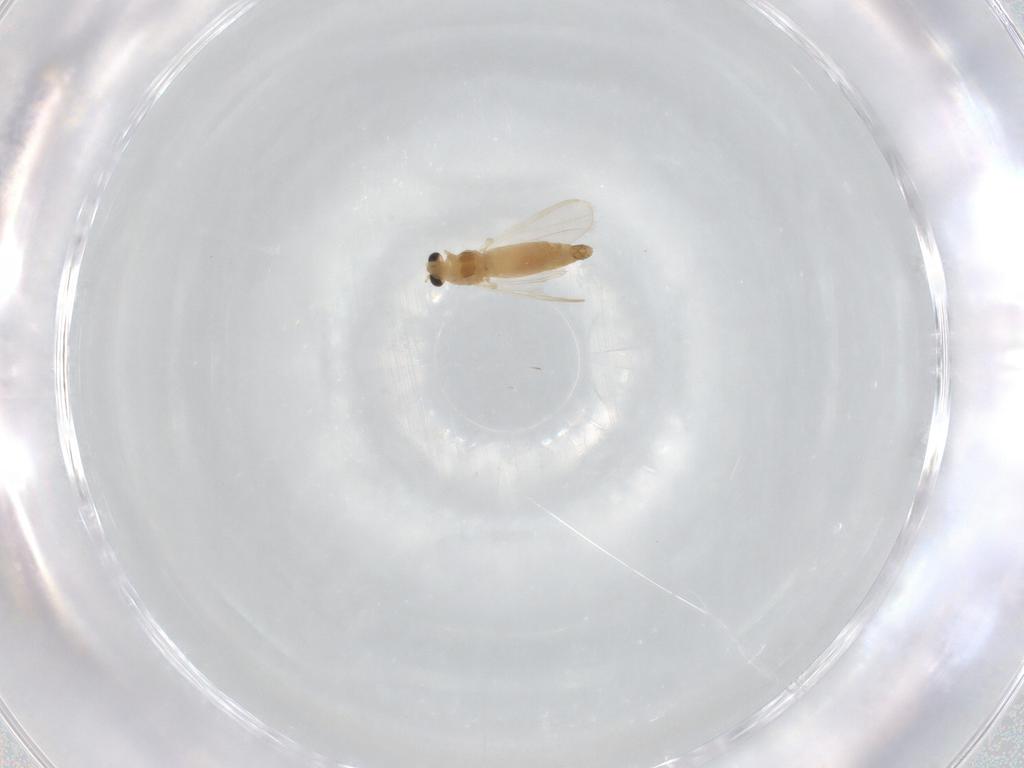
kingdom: Animalia
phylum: Arthropoda
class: Insecta
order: Diptera
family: Chironomidae
